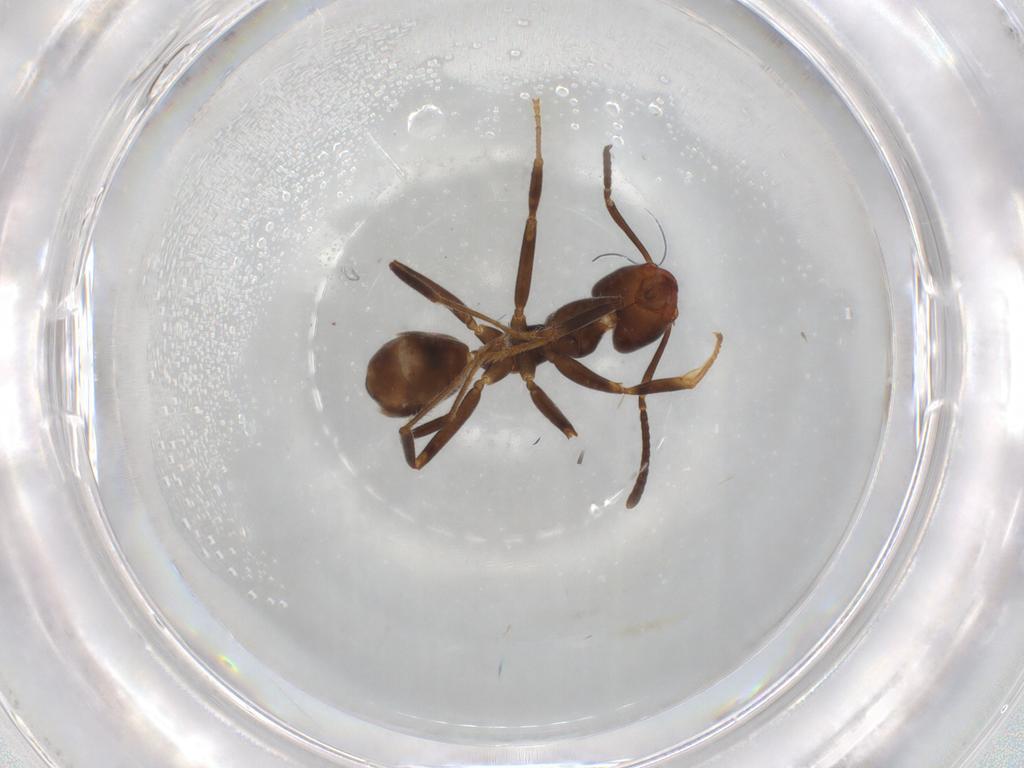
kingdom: Animalia
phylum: Arthropoda
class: Insecta
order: Hymenoptera
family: Formicidae
